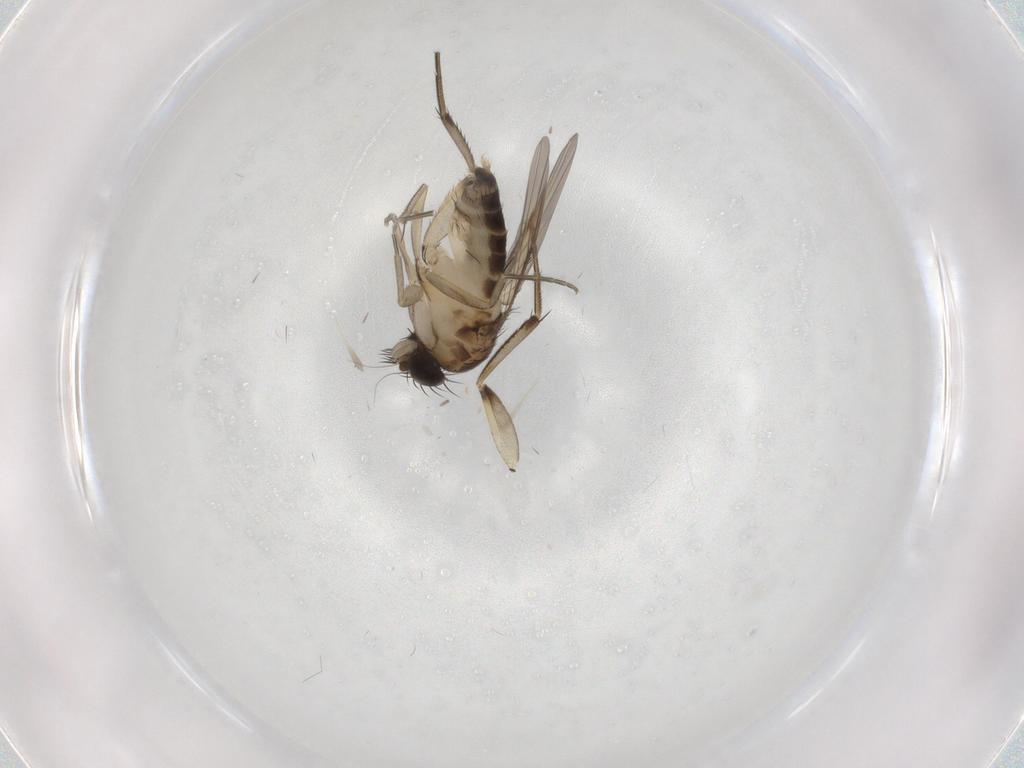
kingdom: Animalia
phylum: Arthropoda
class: Insecta
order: Diptera
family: Phoridae
